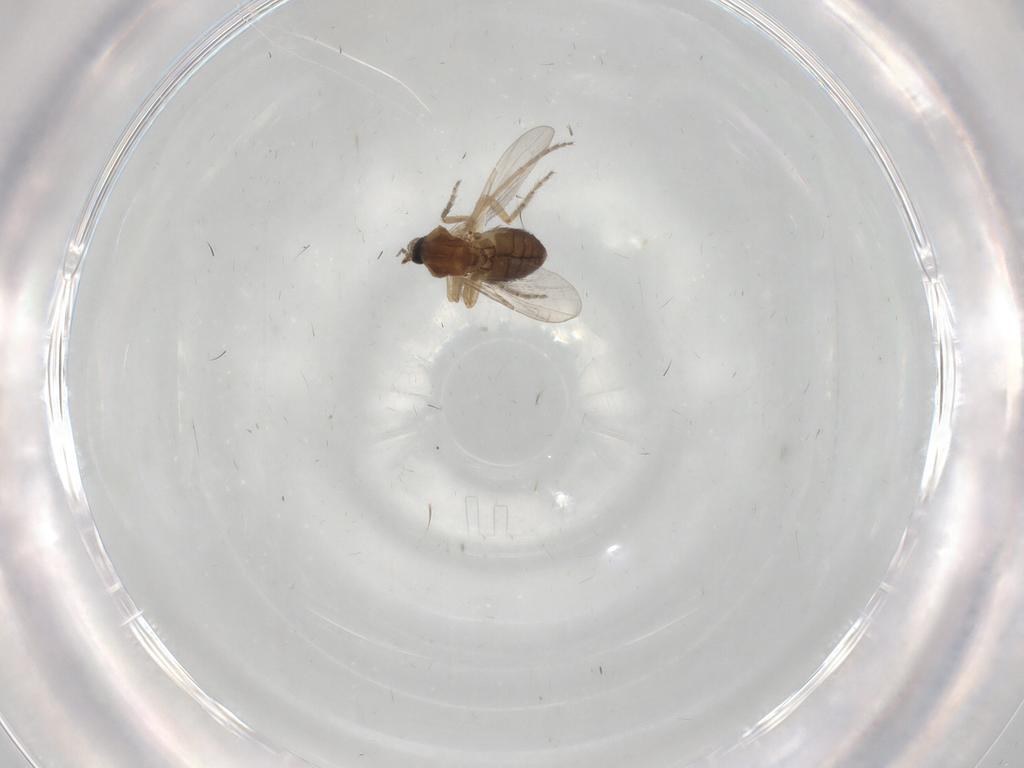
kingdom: Animalia
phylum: Arthropoda
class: Insecta
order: Diptera
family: Ceratopogonidae
